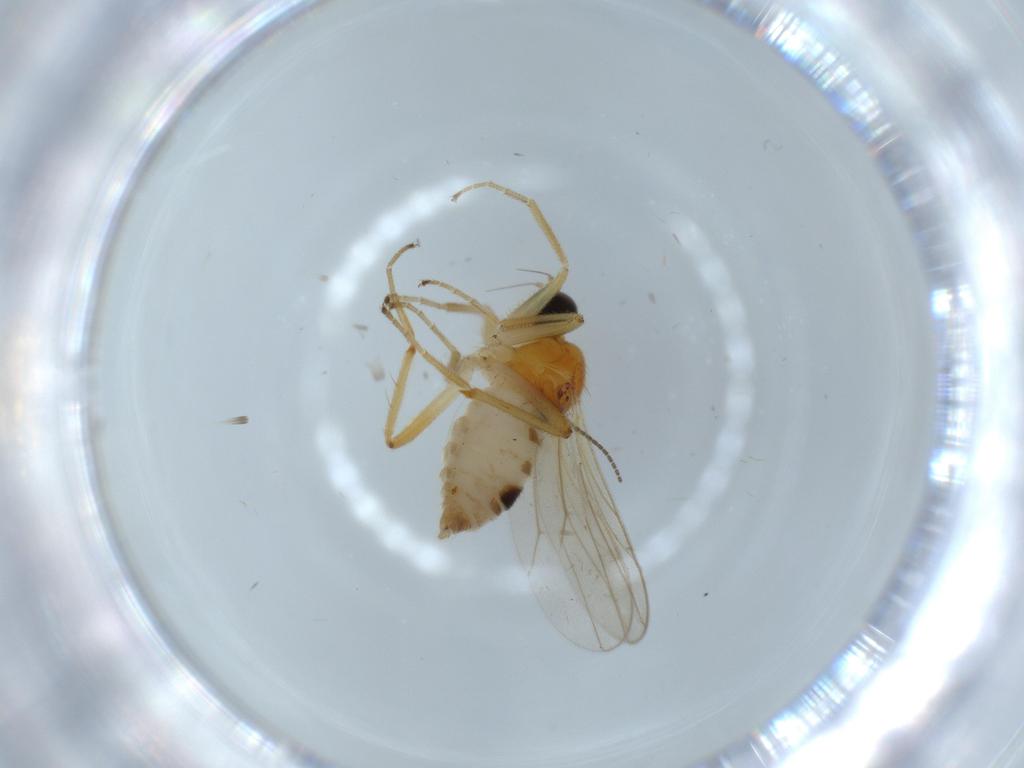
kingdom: Animalia
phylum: Arthropoda
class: Insecta
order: Diptera
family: Hybotidae
